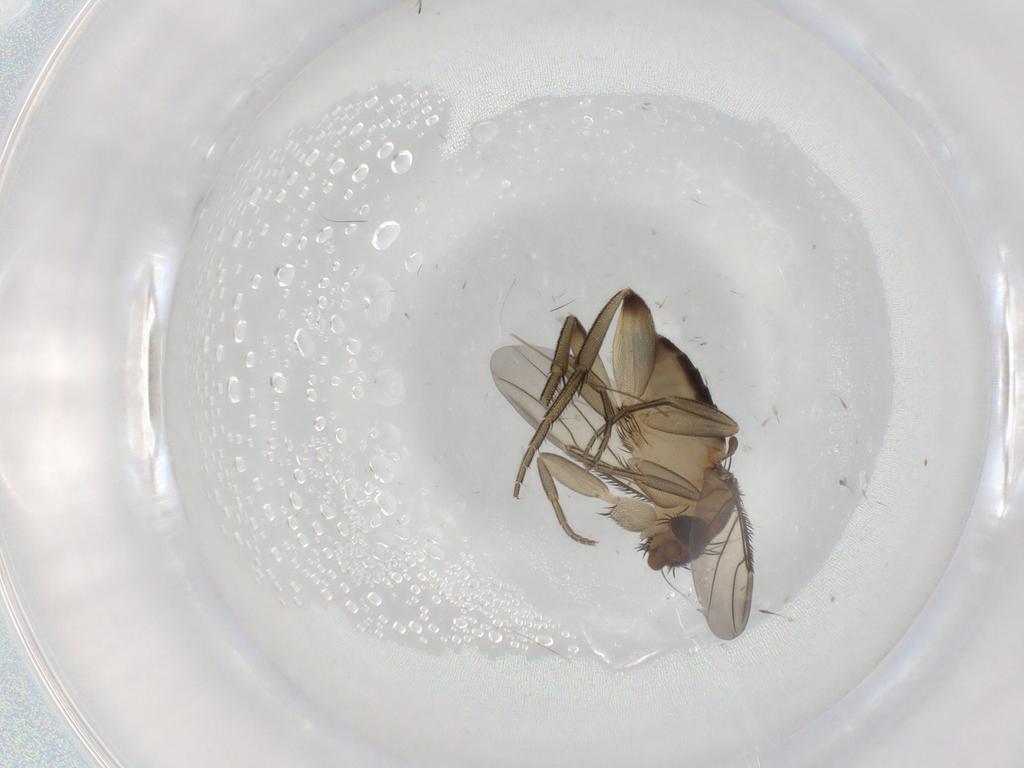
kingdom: Animalia
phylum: Arthropoda
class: Insecta
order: Diptera
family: Phoridae
